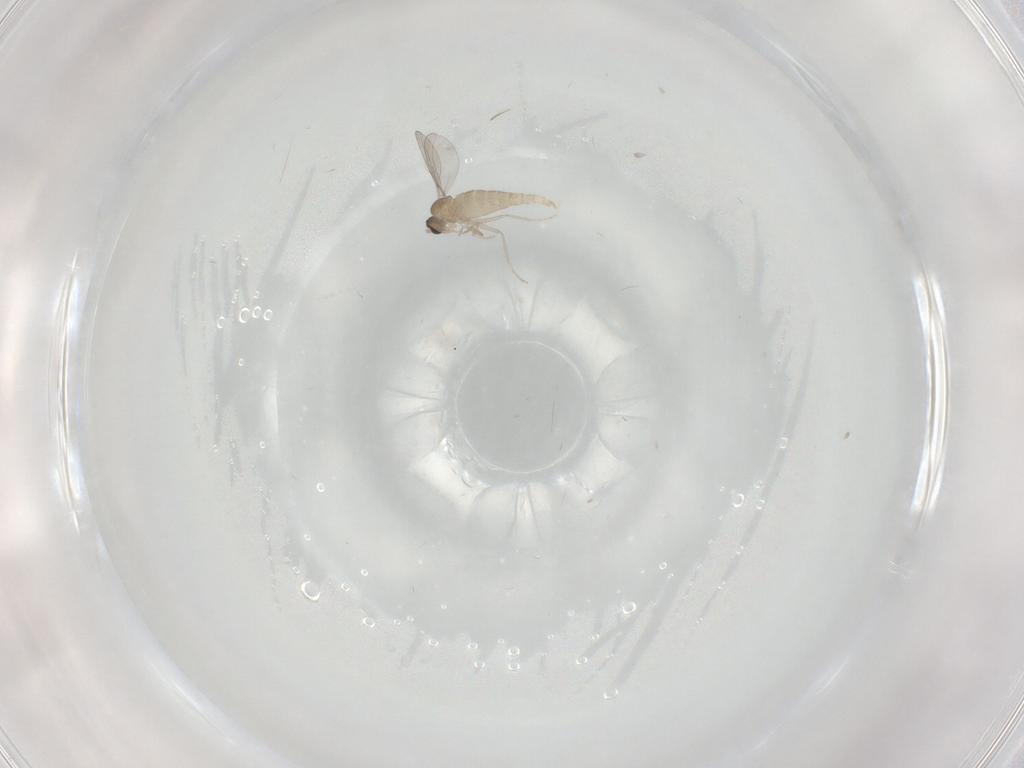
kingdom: Animalia
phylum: Arthropoda
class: Insecta
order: Diptera
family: Cecidomyiidae
